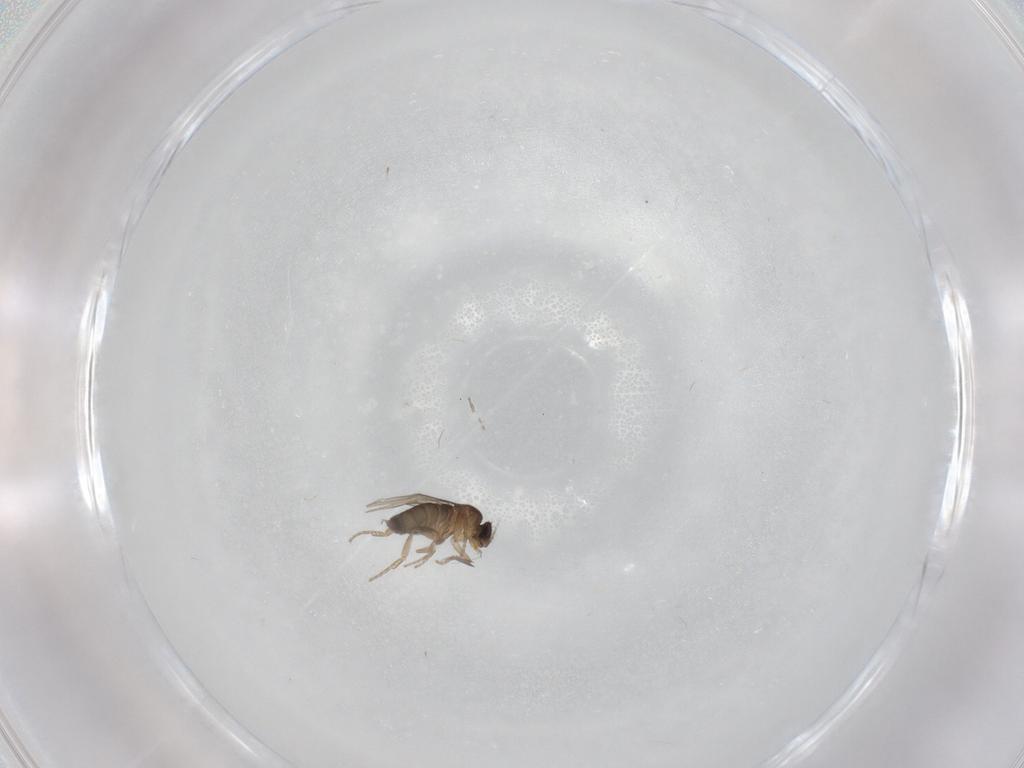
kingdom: Animalia
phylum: Arthropoda
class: Insecta
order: Diptera
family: Phoridae
